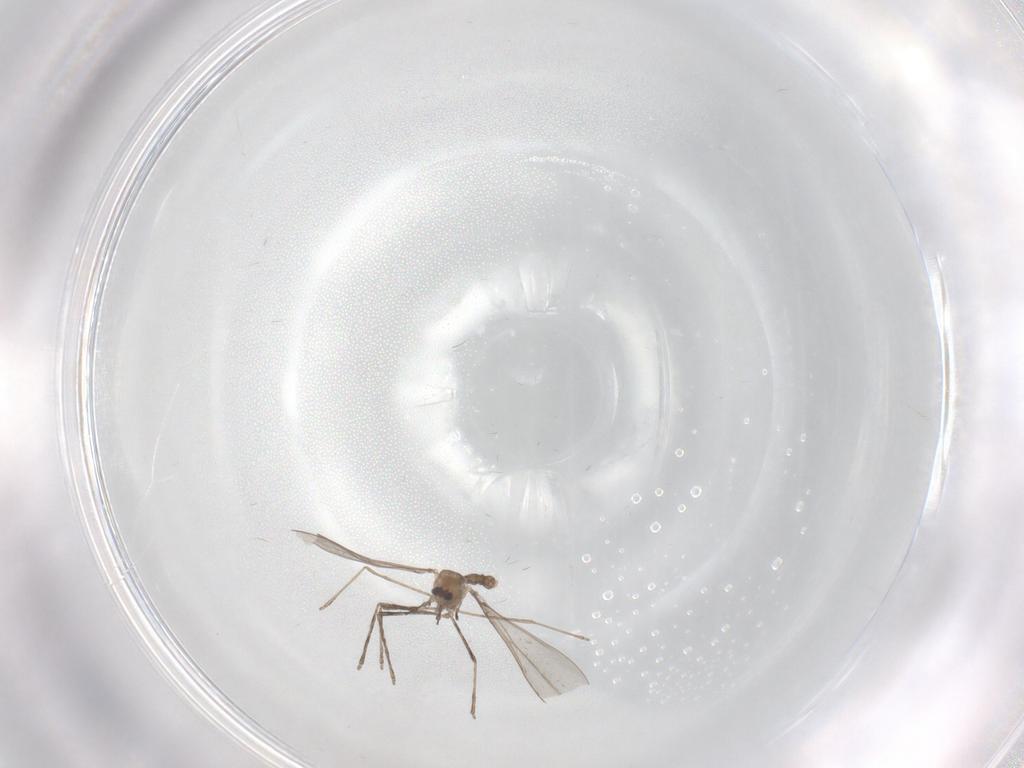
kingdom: Animalia
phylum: Arthropoda
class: Insecta
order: Diptera
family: Cecidomyiidae
